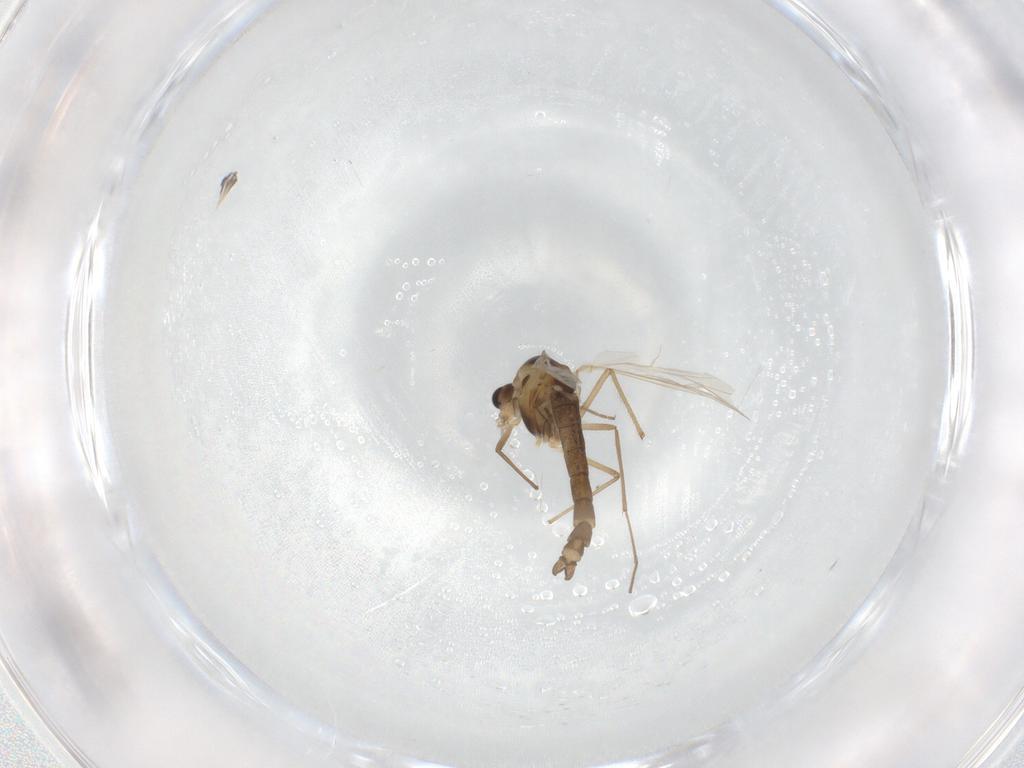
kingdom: Animalia
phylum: Arthropoda
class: Insecta
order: Diptera
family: Chironomidae
